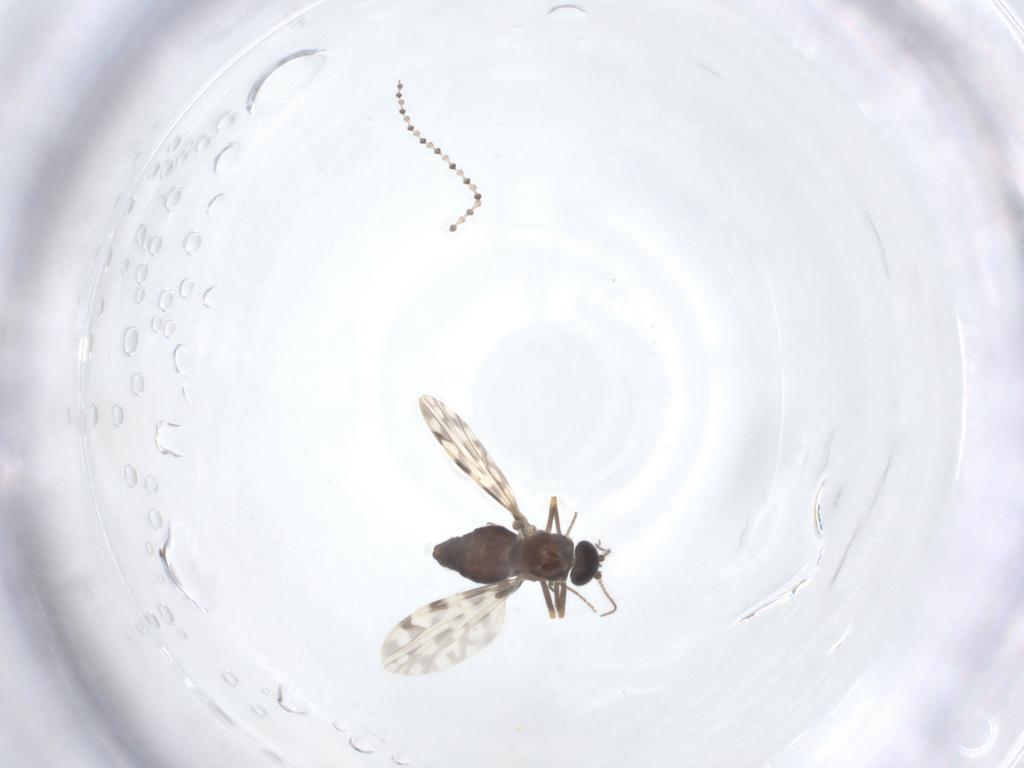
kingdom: Animalia
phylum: Arthropoda
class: Insecta
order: Diptera
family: Ceratopogonidae
